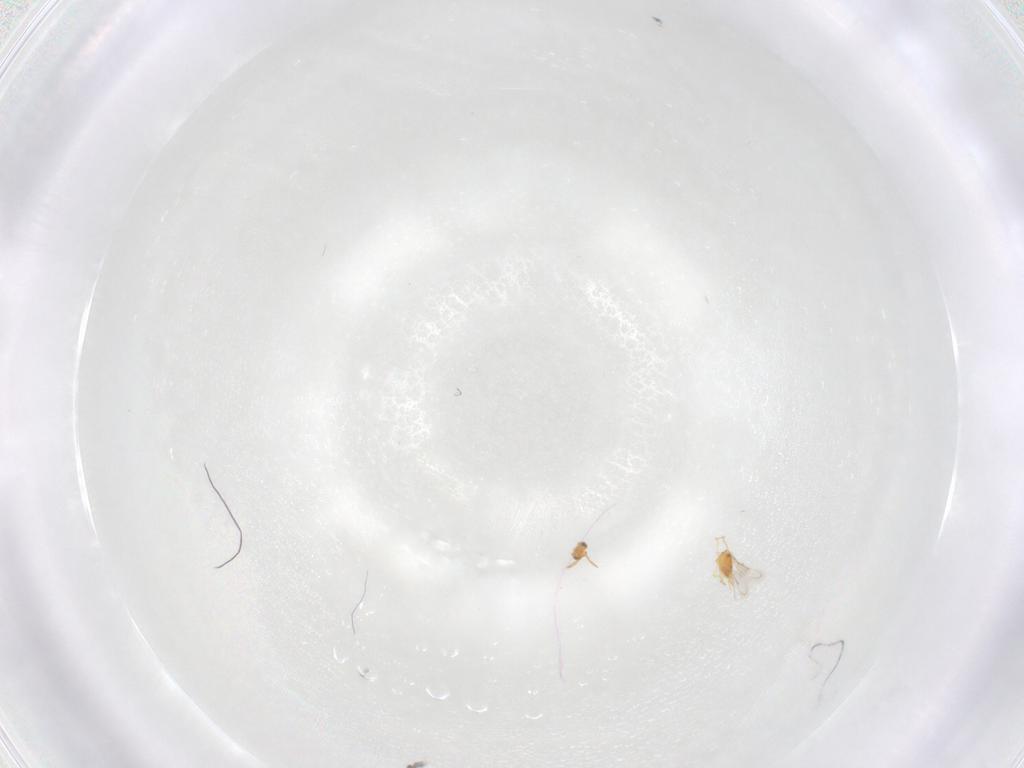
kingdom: Animalia
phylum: Arthropoda
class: Insecta
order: Hymenoptera
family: Aphelinidae
